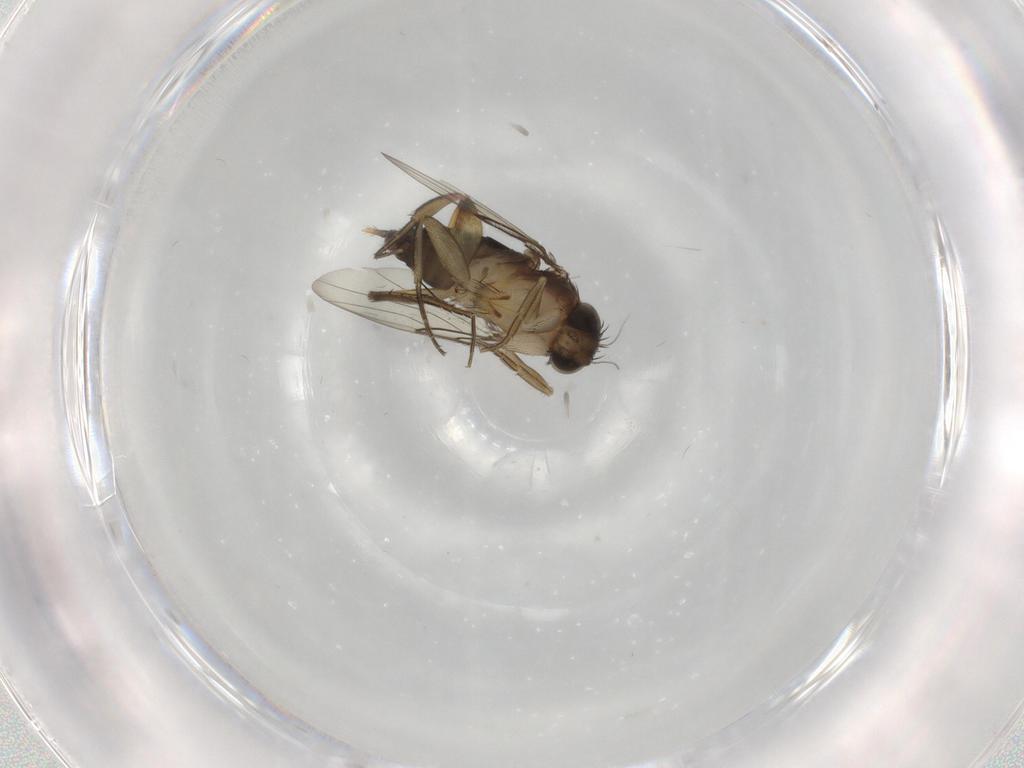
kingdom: Animalia
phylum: Arthropoda
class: Insecta
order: Diptera
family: Phoridae
